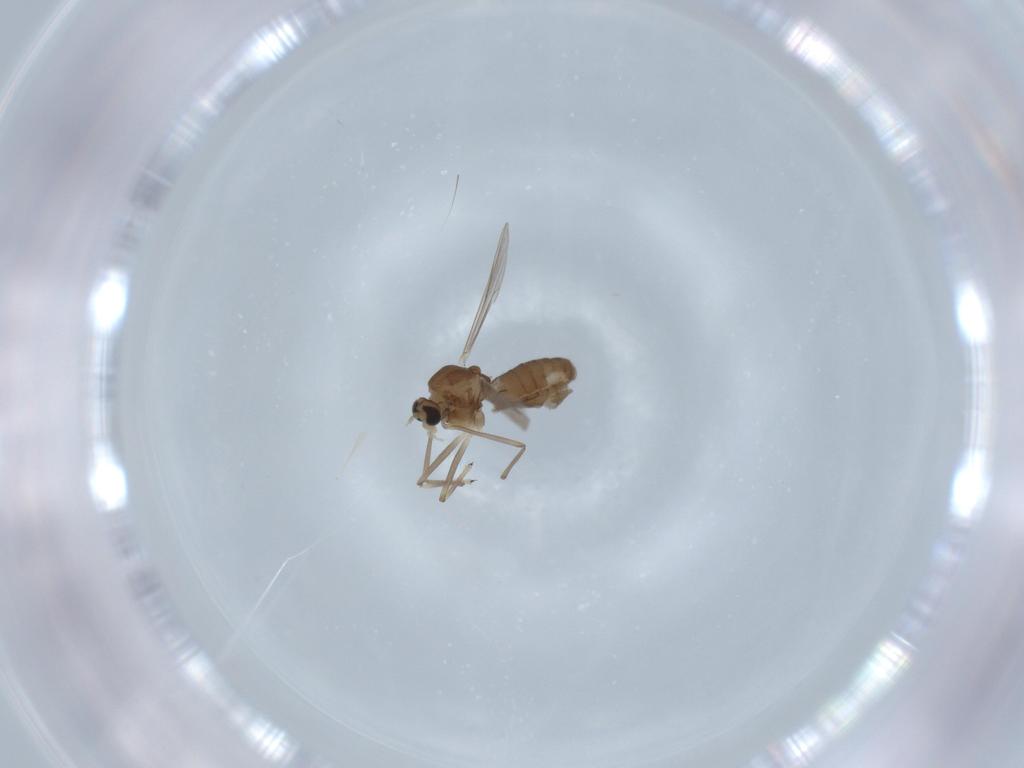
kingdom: Animalia
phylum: Arthropoda
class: Insecta
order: Diptera
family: Chironomidae
